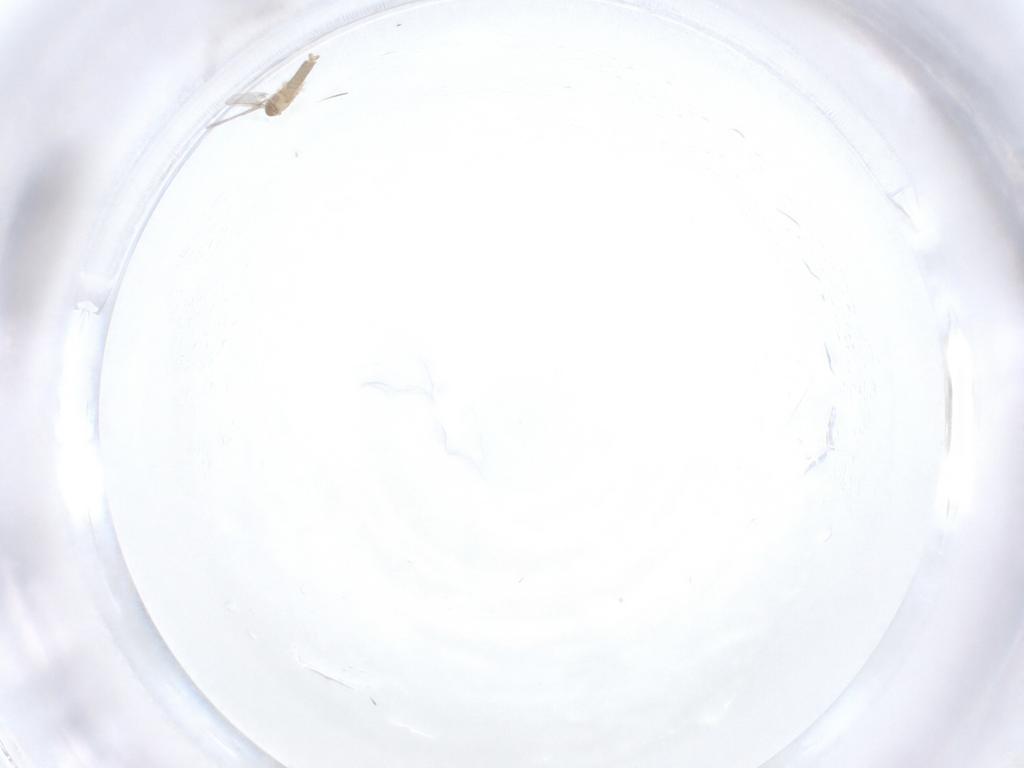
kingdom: Animalia
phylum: Arthropoda
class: Insecta
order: Diptera
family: Cecidomyiidae
